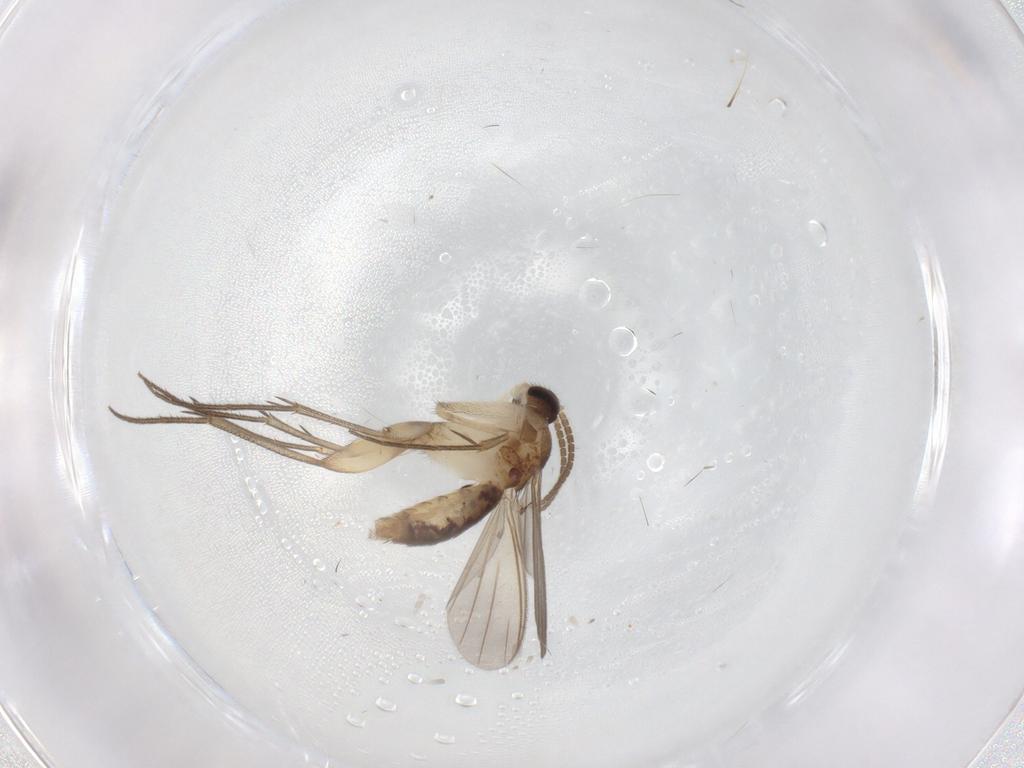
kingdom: Animalia
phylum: Arthropoda
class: Insecta
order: Diptera
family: Mycetophilidae
